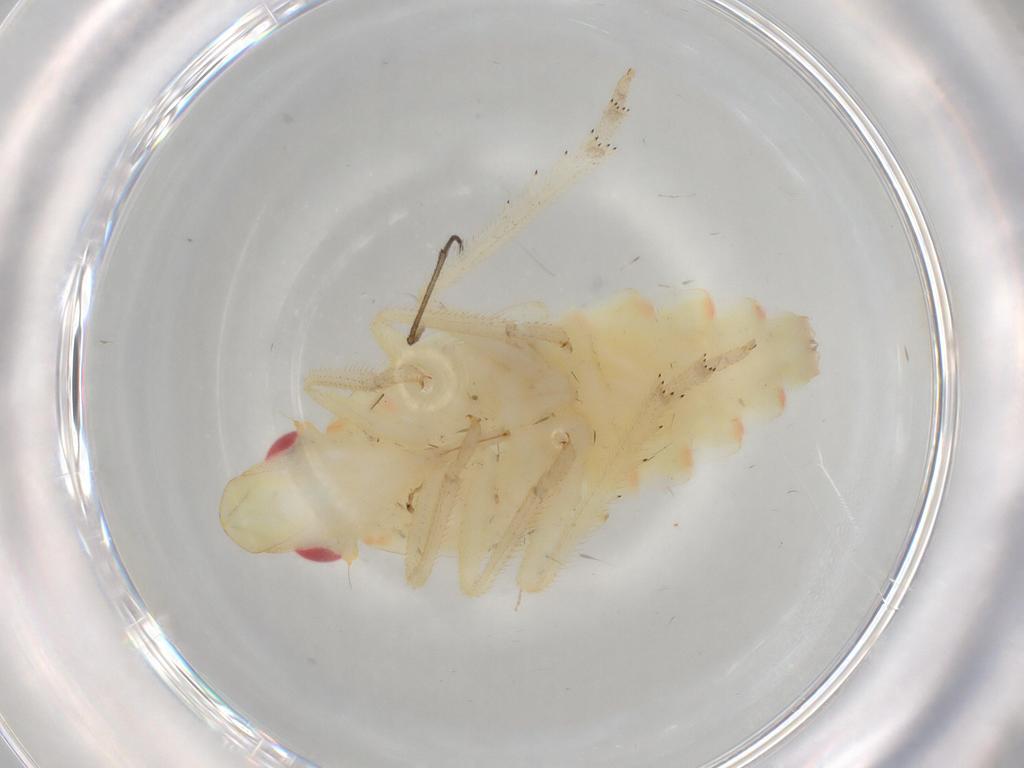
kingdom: Animalia
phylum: Arthropoda
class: Insecta
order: Hemiptera
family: Tropiduchidae
